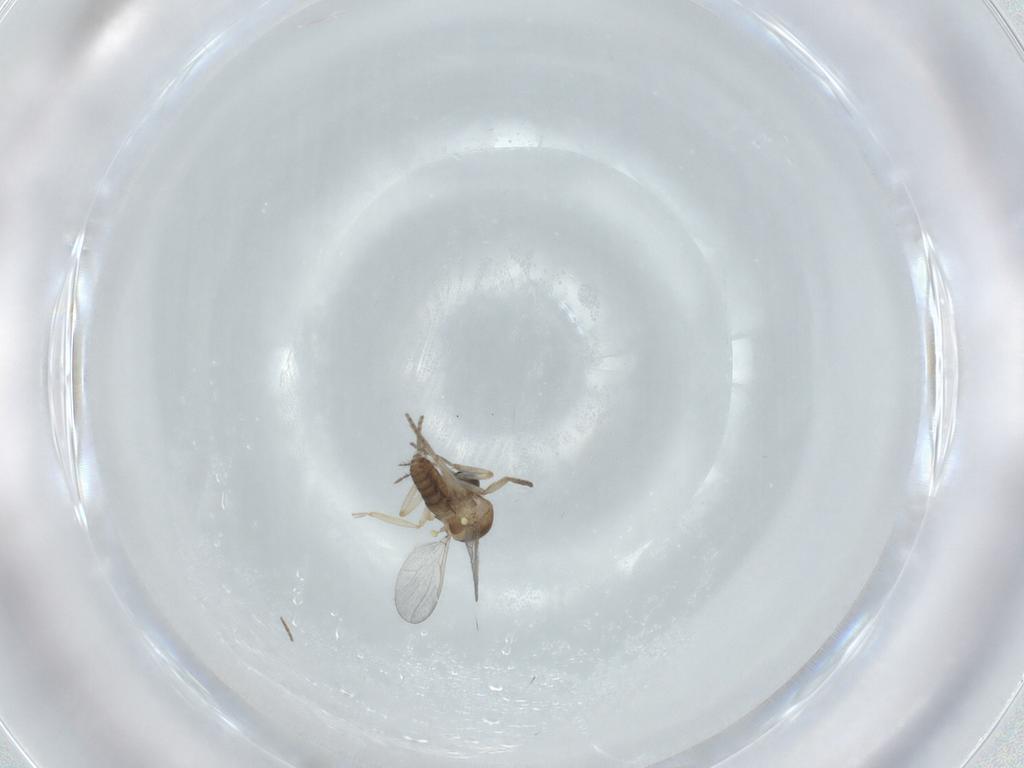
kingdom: Animalia
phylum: Arthropoda
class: Insecta
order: Diptera
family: Ceratopogonidae
